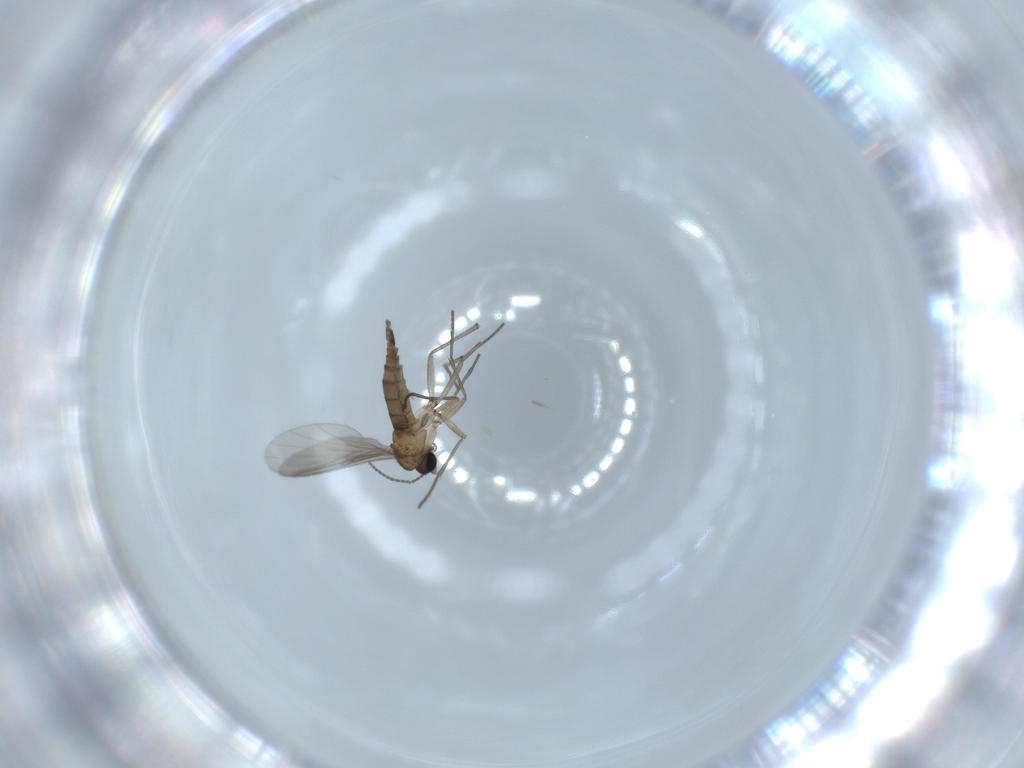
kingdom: Animalia
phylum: Arthropoda
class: Insecta
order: Diptera
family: Sciaridae
